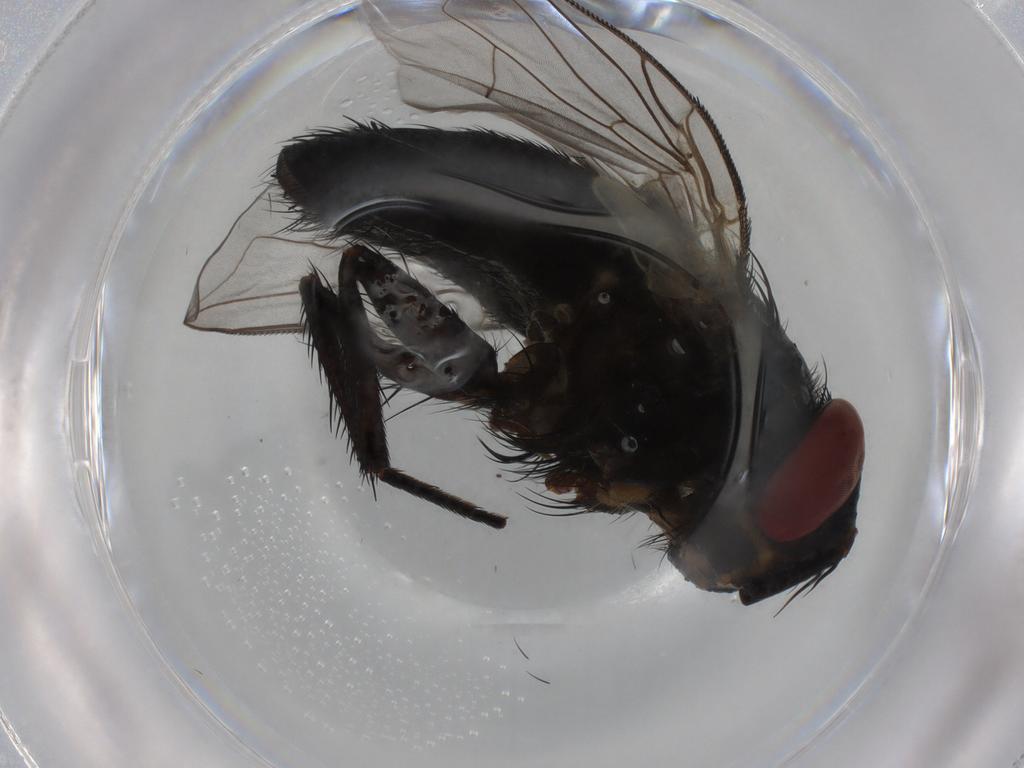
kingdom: Animalia
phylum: Arthropoda
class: Insecta
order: Diptera
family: Tachinidae
